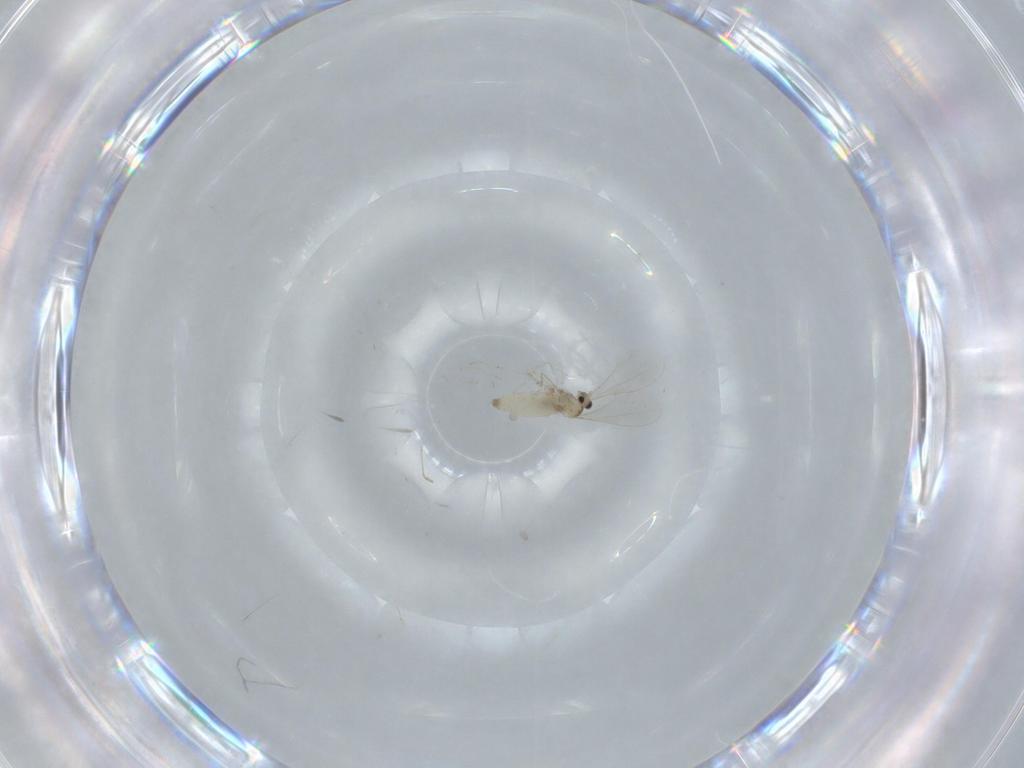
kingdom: Animalia
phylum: Arthropoda
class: Insecta
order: Diptera
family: Cecidomyiidae
